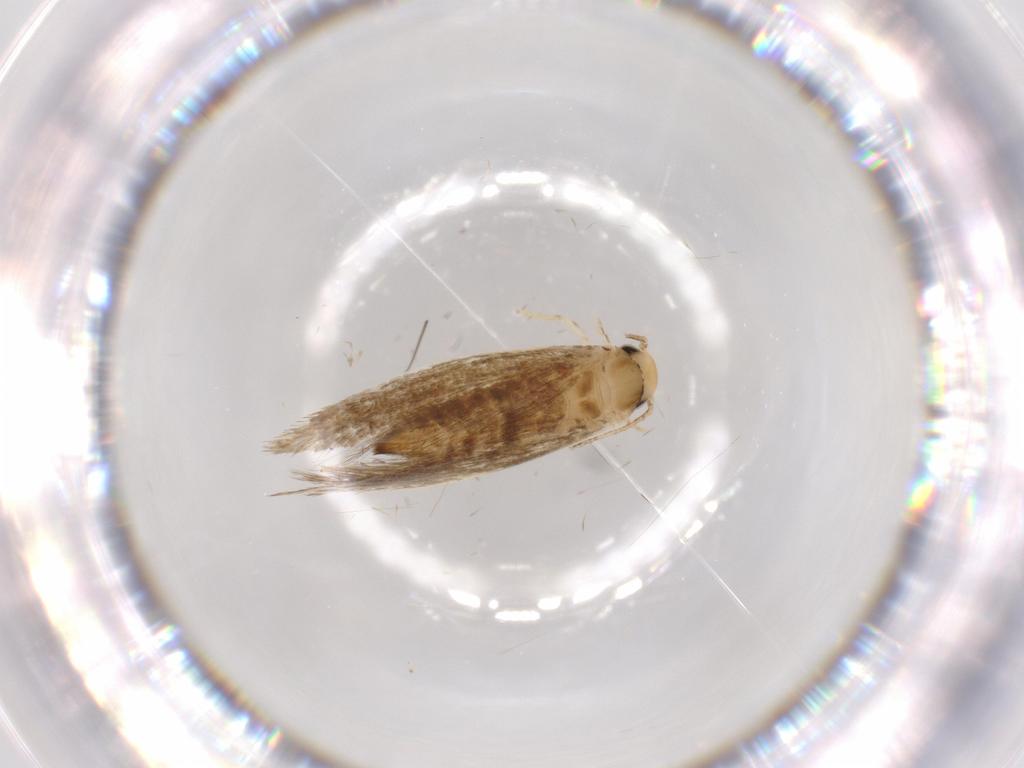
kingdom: Animalia
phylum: Arthropoda
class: Insecta
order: Lepidoptera
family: Tineidae
